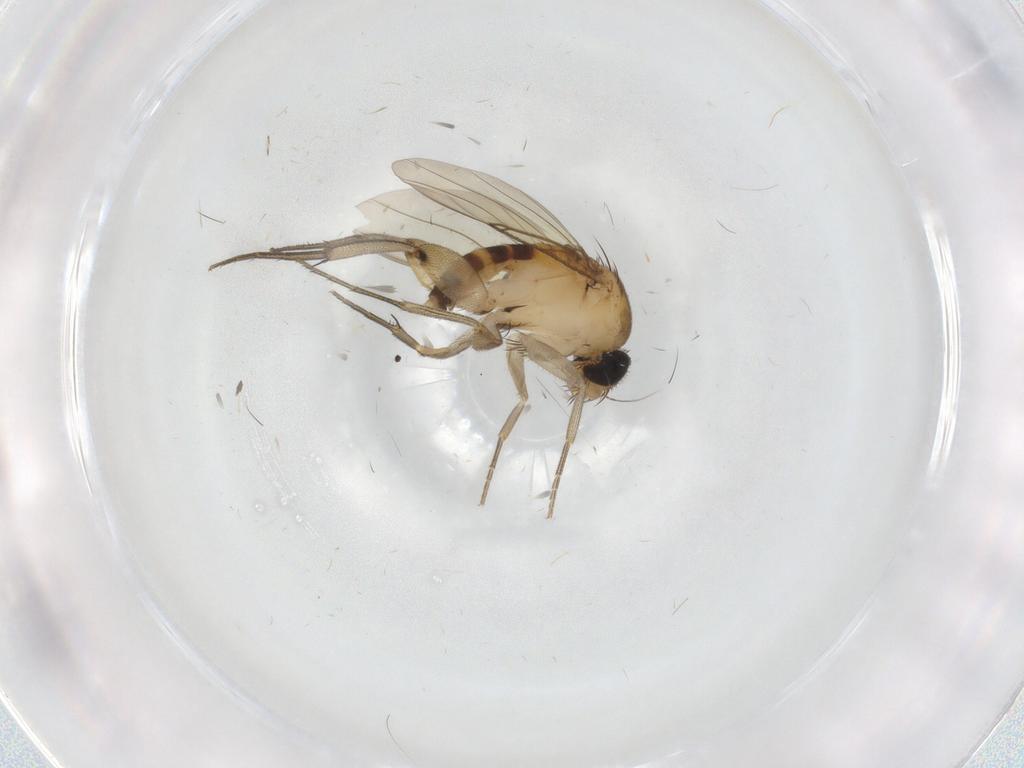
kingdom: Animalia
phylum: Arthropoda
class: Insecta
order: Diptera
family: Phoridae
